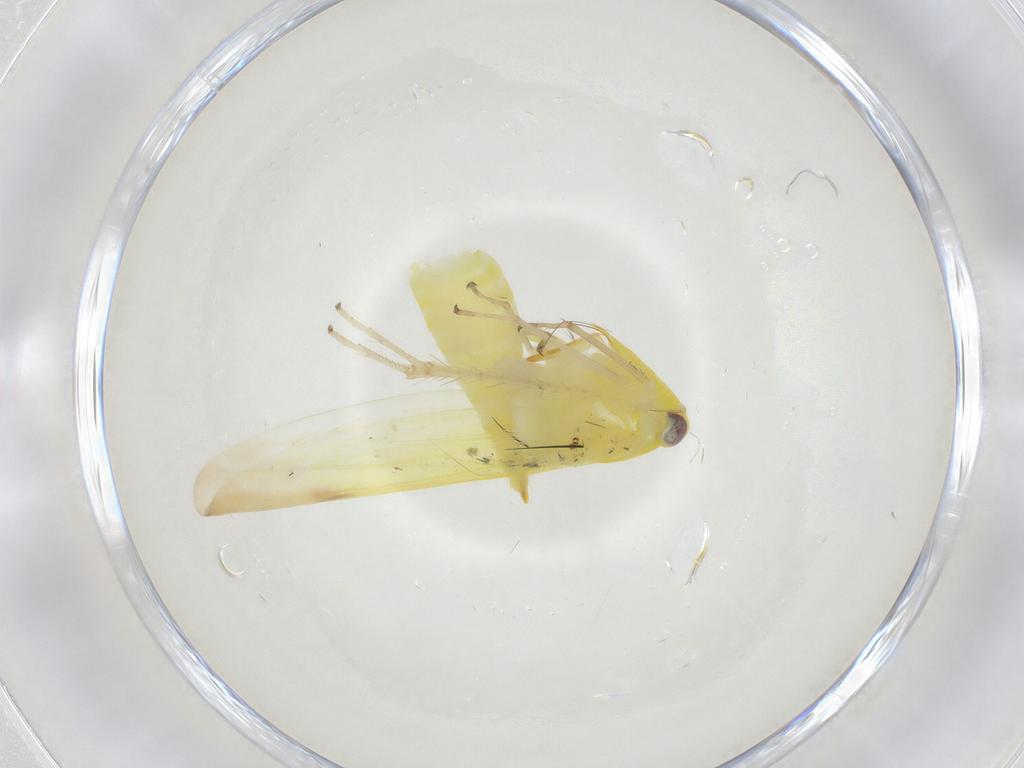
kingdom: Animalia
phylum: Arthropoda
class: Insecta
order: Hemiptera
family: Cicadellidae
